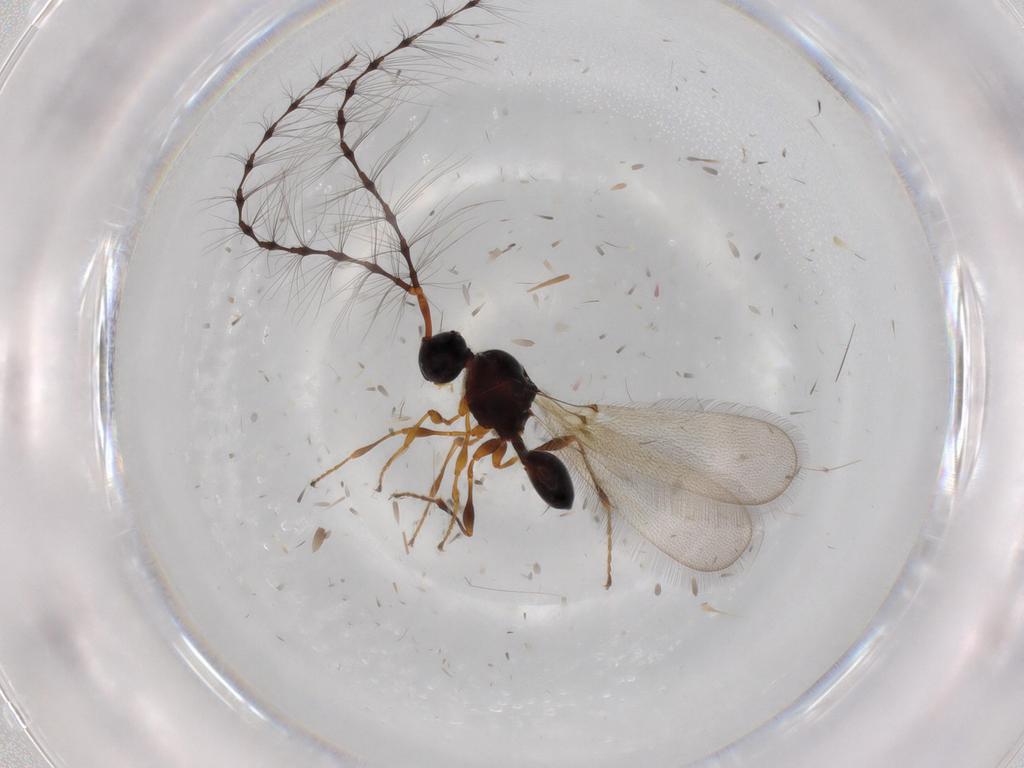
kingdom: Animalia
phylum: Arthropoda
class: Insecta
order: Hymenoptera
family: Diapriidae
